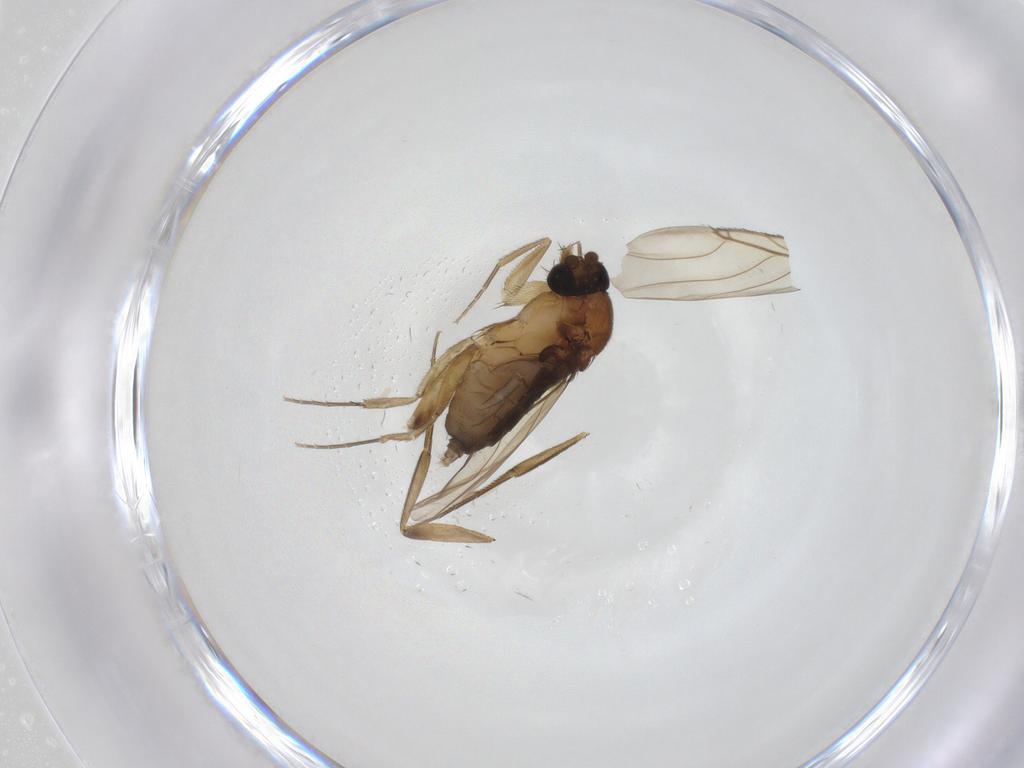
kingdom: Animalia
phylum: Arthropoda
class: Insecta
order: Diptera
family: Phoridae
